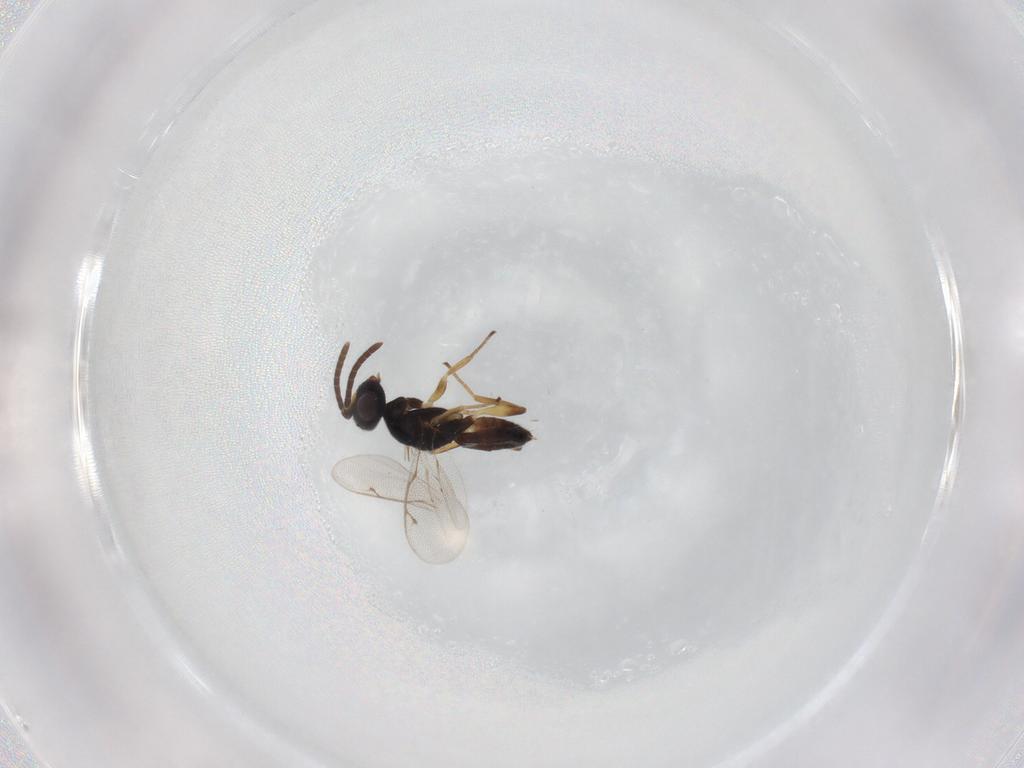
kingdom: Animalia
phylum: Arthropoda
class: Insecta
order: Hymenoptera
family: Eupelmidae
